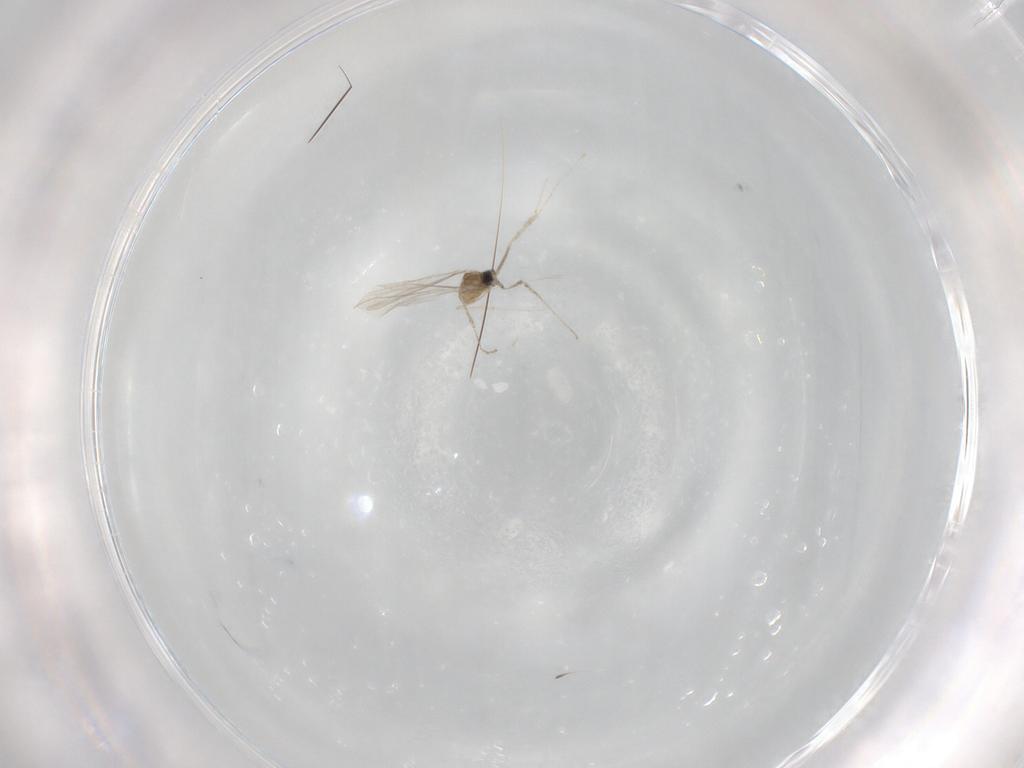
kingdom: Animalia
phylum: Arthropoda
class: Insecta
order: Diptera
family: Cecidomyiidae
